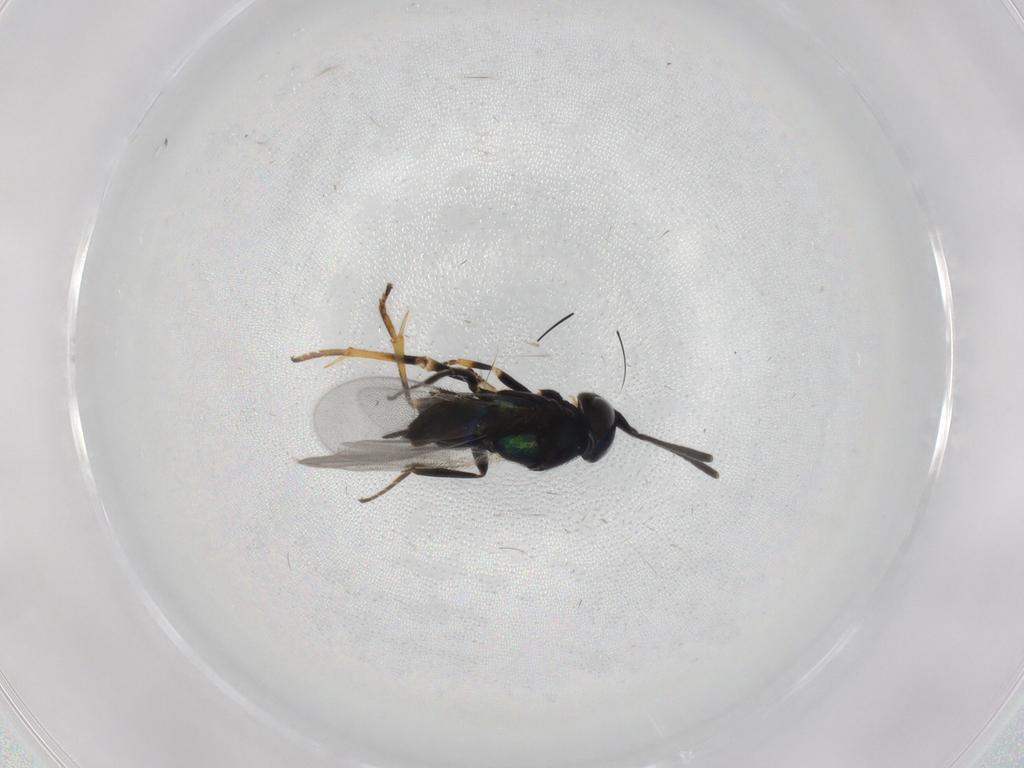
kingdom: Animalia
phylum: Arthropoda
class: Insecta
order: Hymenoptera
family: Encyrtidae
